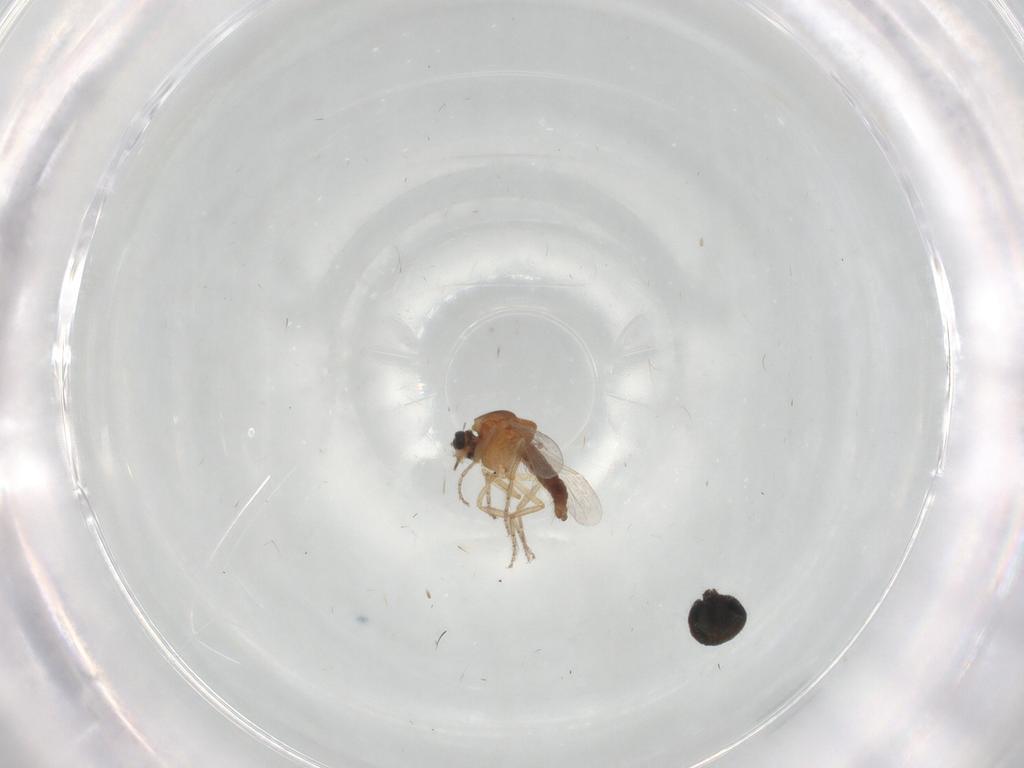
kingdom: Animalia
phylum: Arthropoda
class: Insecta
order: Diptera
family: Ceratopogonidae
